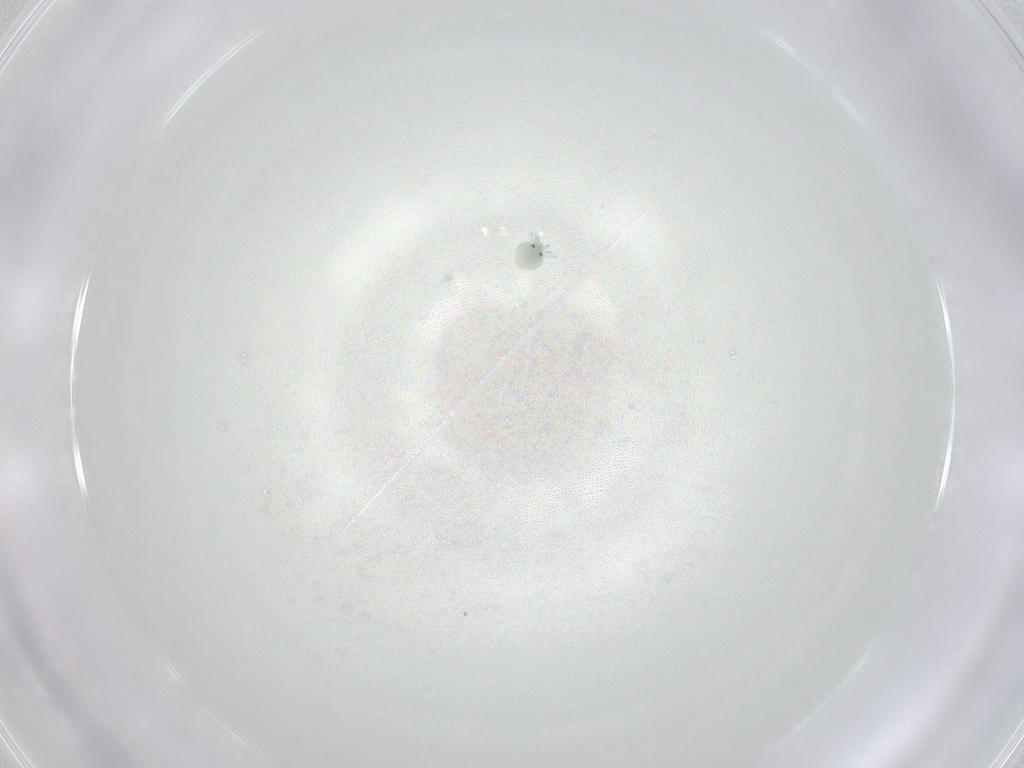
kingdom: Animalia
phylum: Arthropoda
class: Arachnida
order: Trombidiformes
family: Arrenuridae
